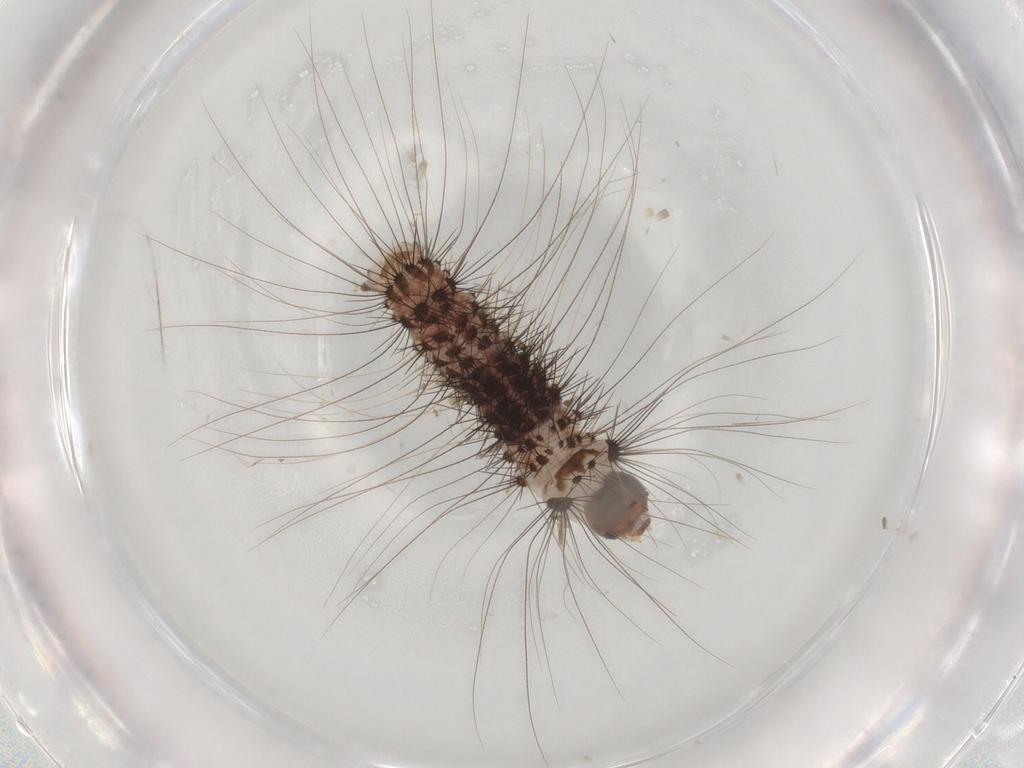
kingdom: Animalia
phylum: Arthropoda
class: Insecta
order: Lepidoptera
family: Scythrididae
